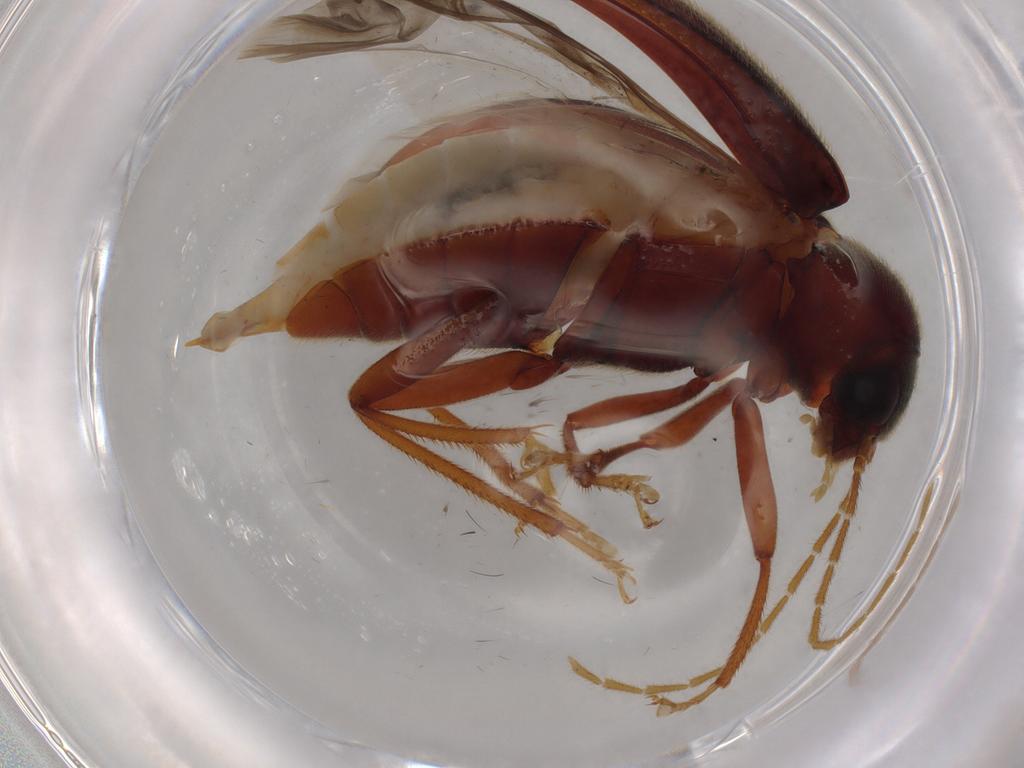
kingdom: Animalia
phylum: Arthropoda
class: Insecta
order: Coleoptera
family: Ptilodactylidae
